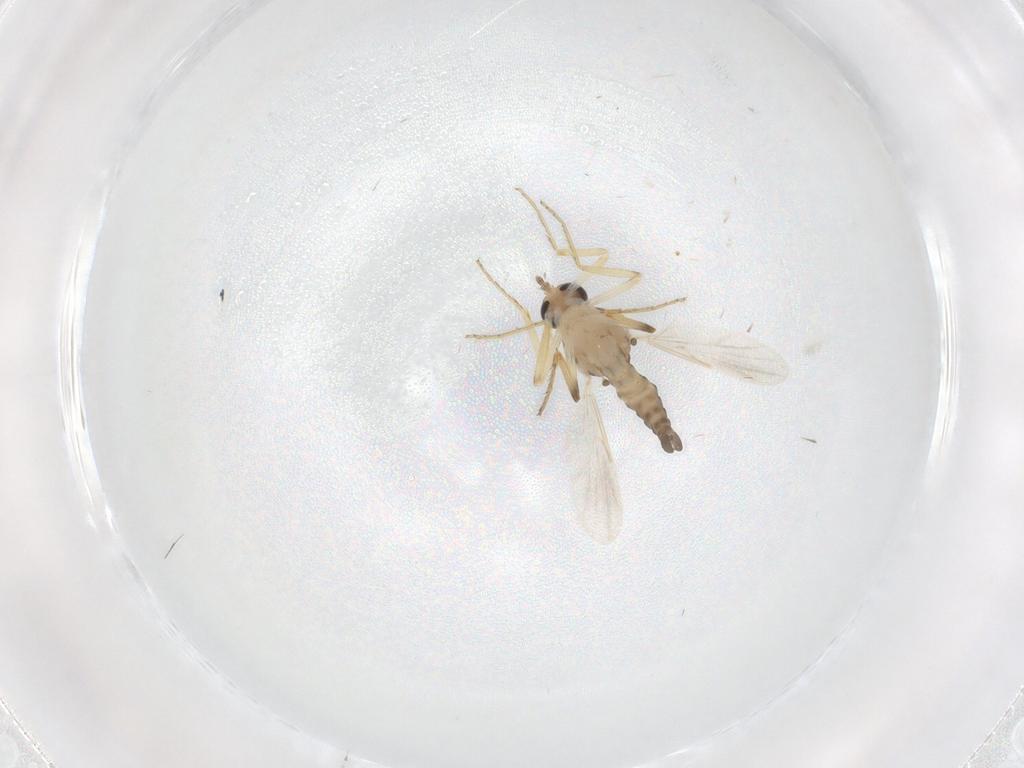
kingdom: Animalia
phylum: Arthropoda
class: Insecta
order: Diptera
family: Ceratopogonidae
